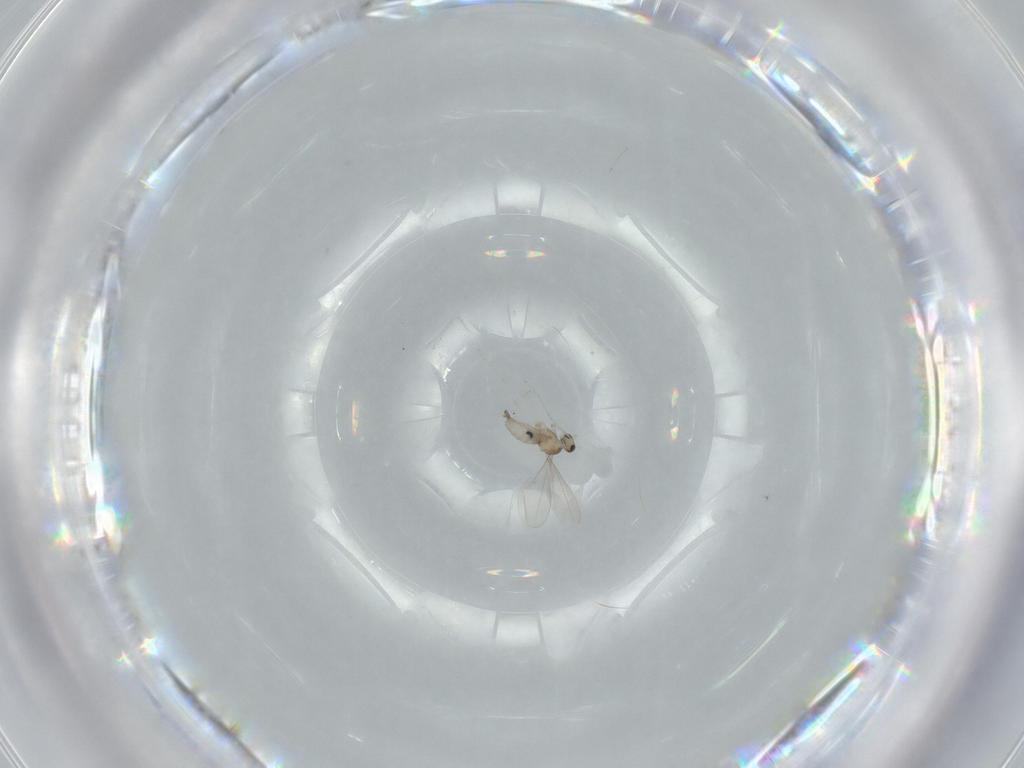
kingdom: Animalia
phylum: Arthropoda
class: Insecta
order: Diptera
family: Cecidomyiidae
